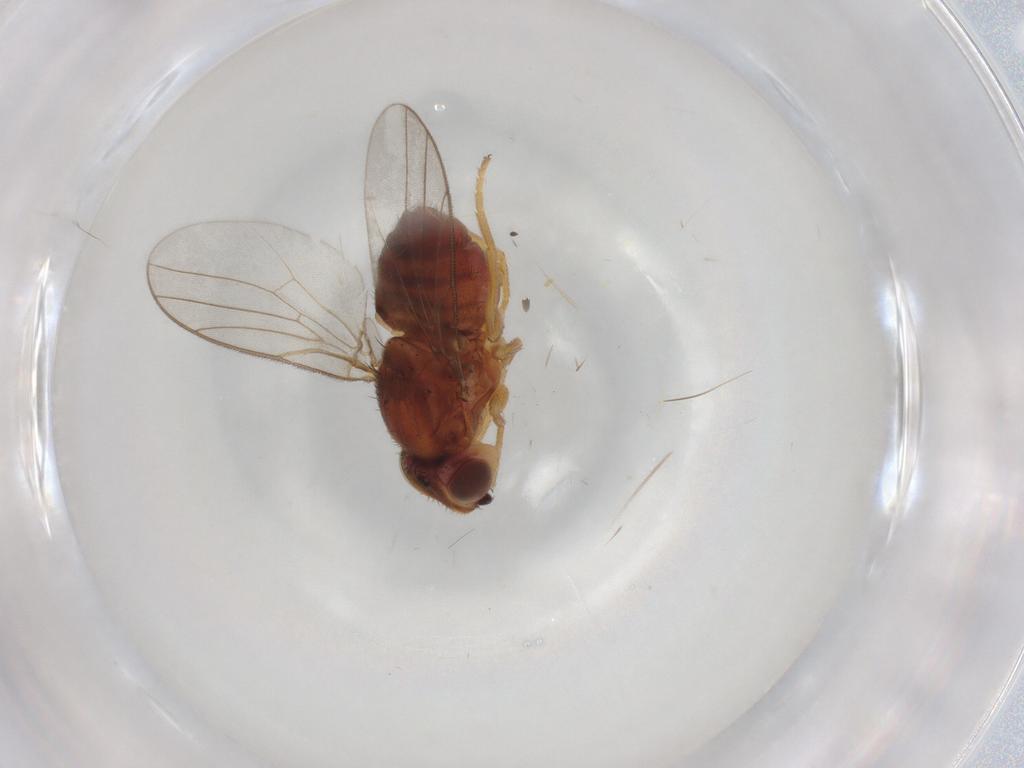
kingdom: Animalia
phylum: Arthropoda
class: Insecta
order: Diptera
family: Chloropidae
